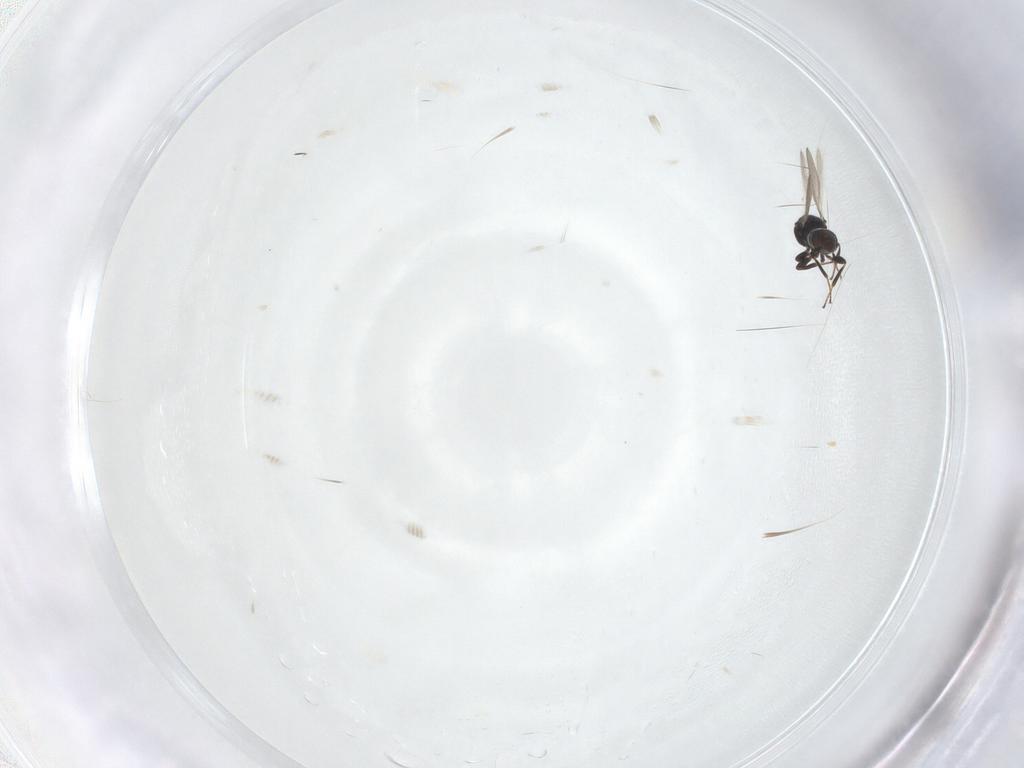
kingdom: Animalia
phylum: Arthropoda
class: Insecta
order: Hymenoptera
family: Platygastridae
